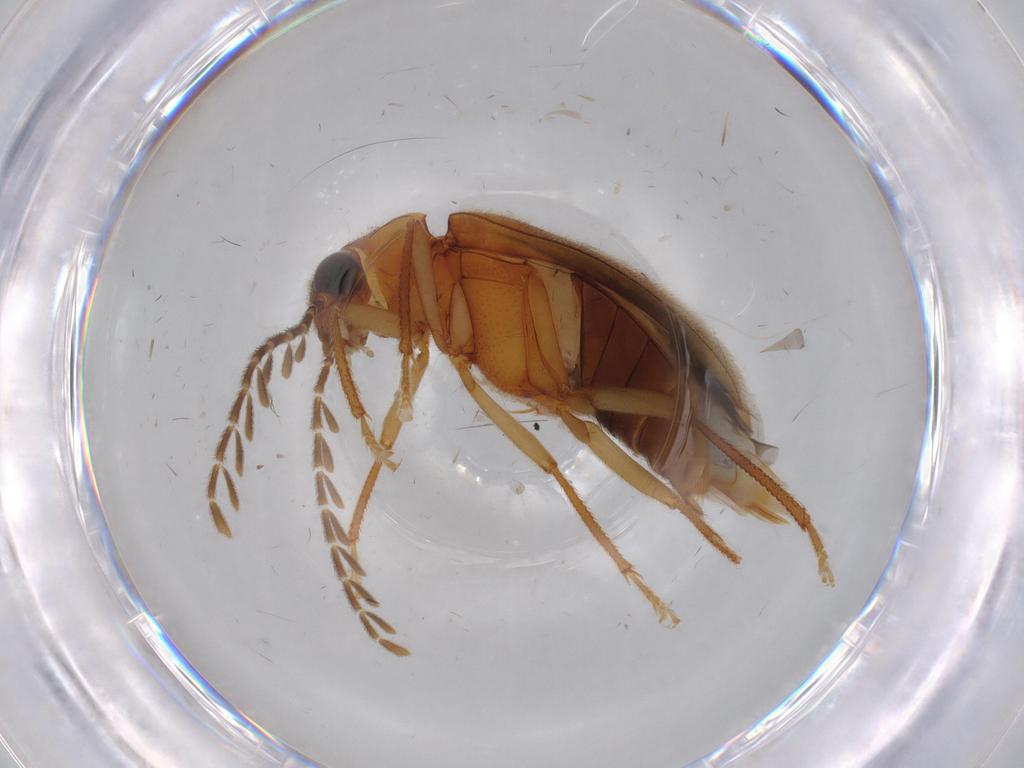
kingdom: Animalia
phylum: Arthropoda
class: Insecta
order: Coleoptera
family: Ptilodactylidae
